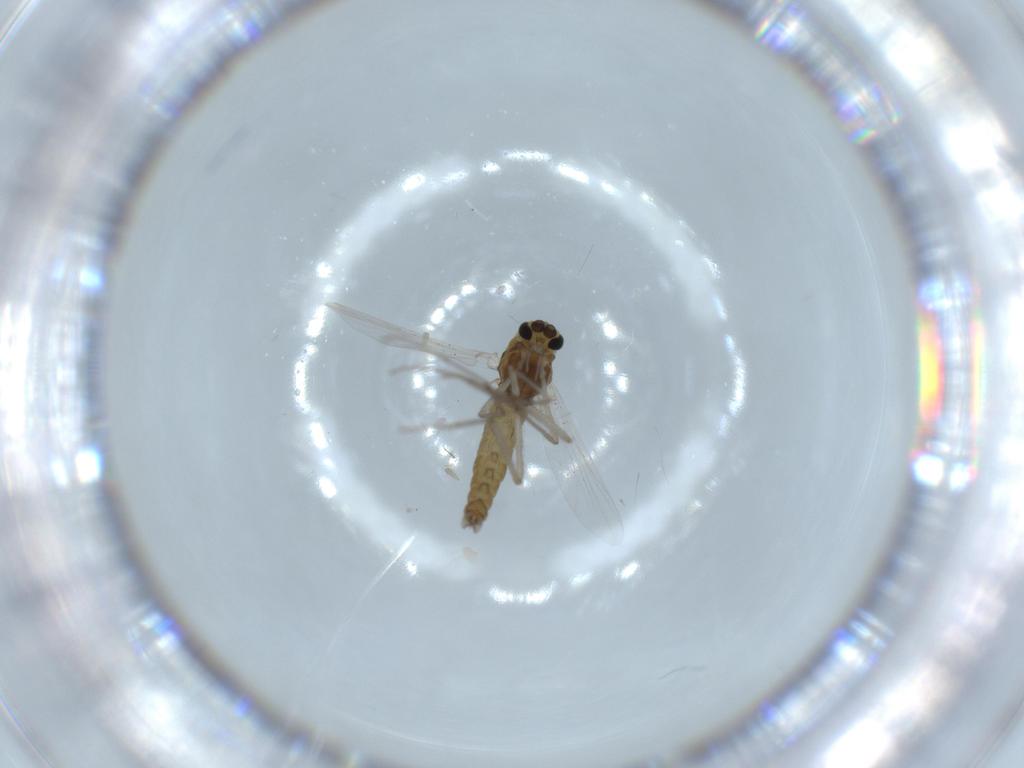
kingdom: Animalia
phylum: Arthropoda
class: Insecta
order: Diptera
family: Chironomidae
